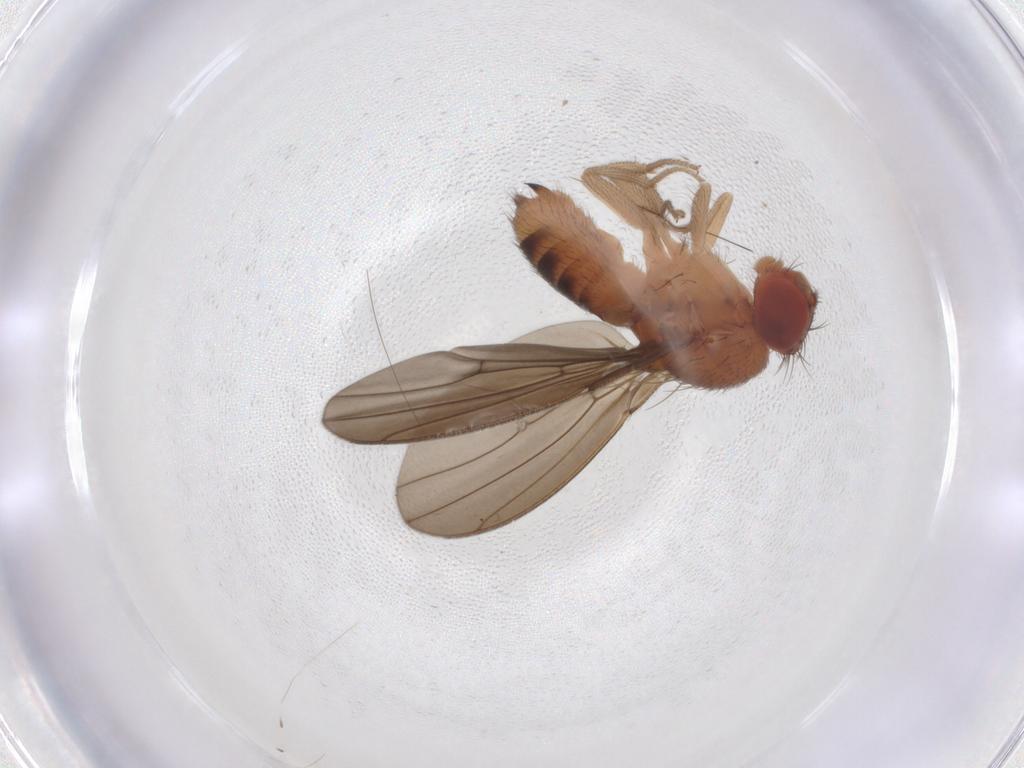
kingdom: Animalia
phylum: Arthropoda
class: Insecta
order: Diptera
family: Drosophilidae
